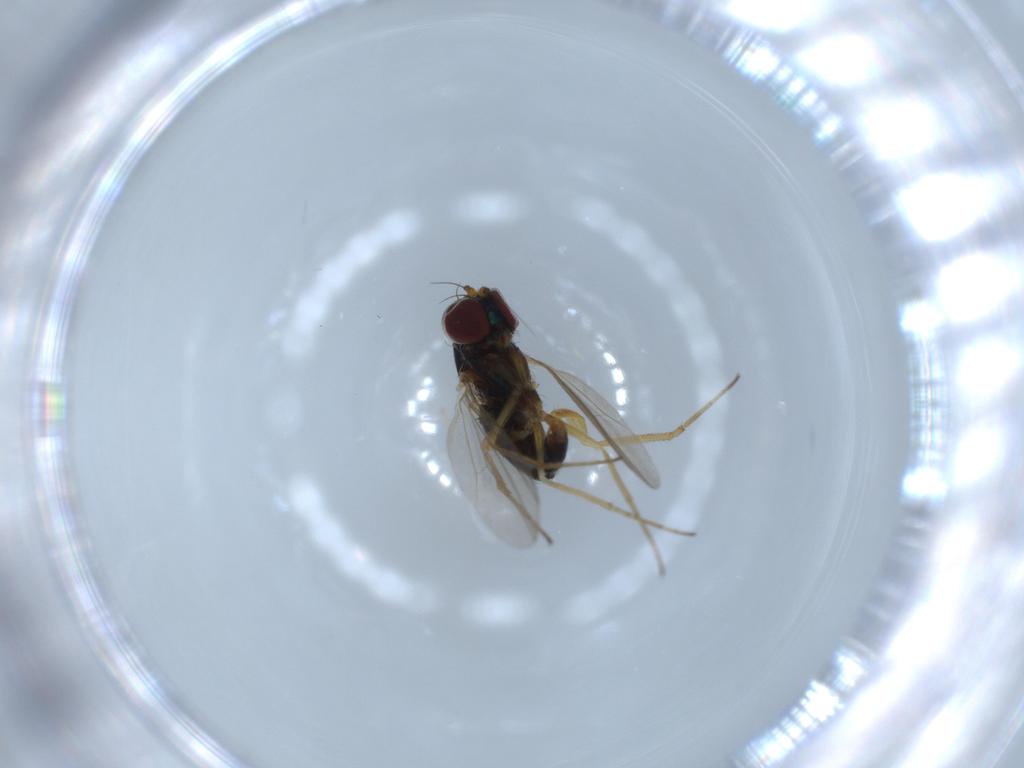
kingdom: Animalia
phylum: Arthropoda
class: Insecta
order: Diptera
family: Dolichopodidae
